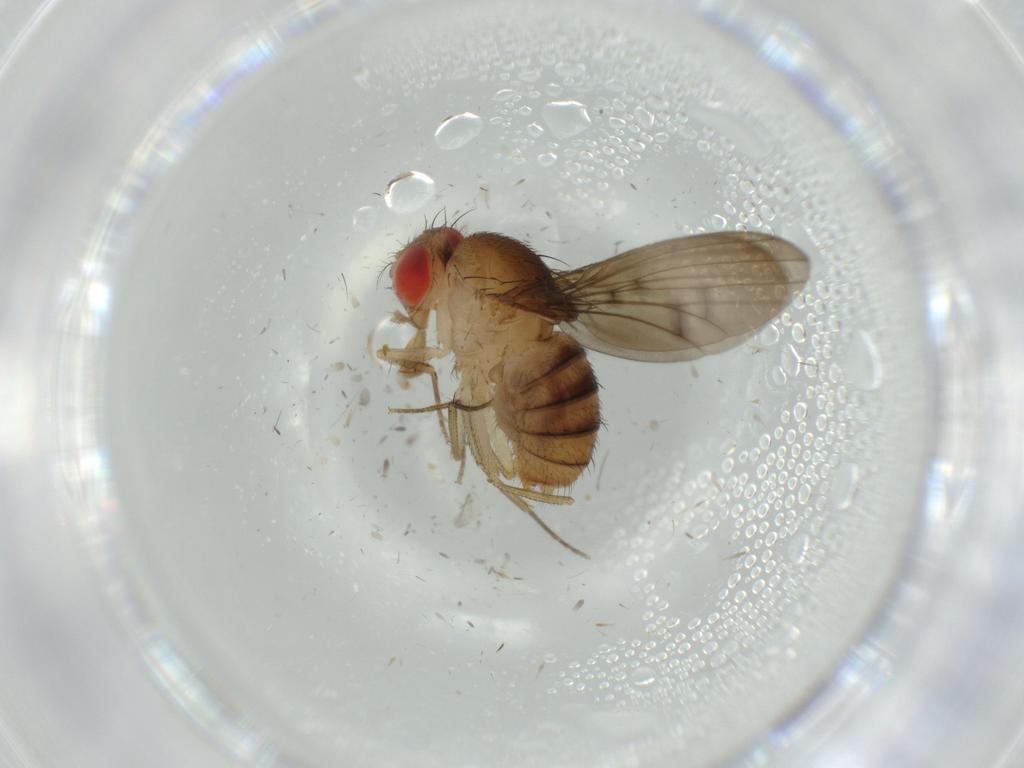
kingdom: Animalia
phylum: Arthropoda
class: Insecta
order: Diptera
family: Drosophilidae
